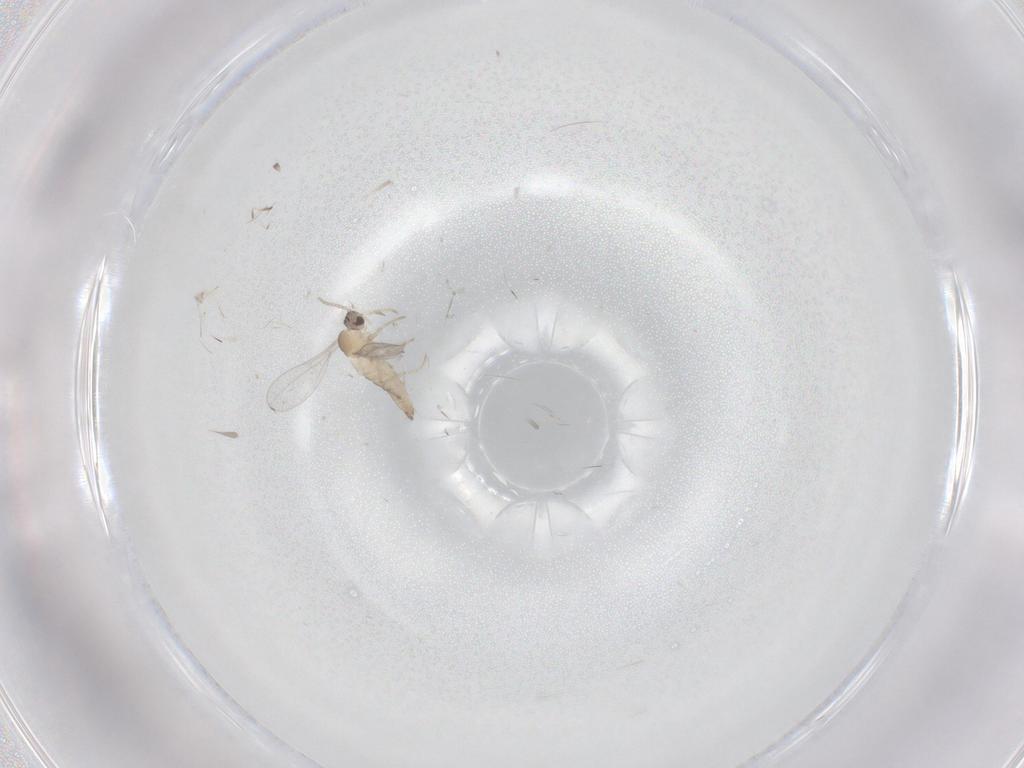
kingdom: Animalia
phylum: Arthropoda
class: Insecta
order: Diptera
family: Cecidomyiidae
